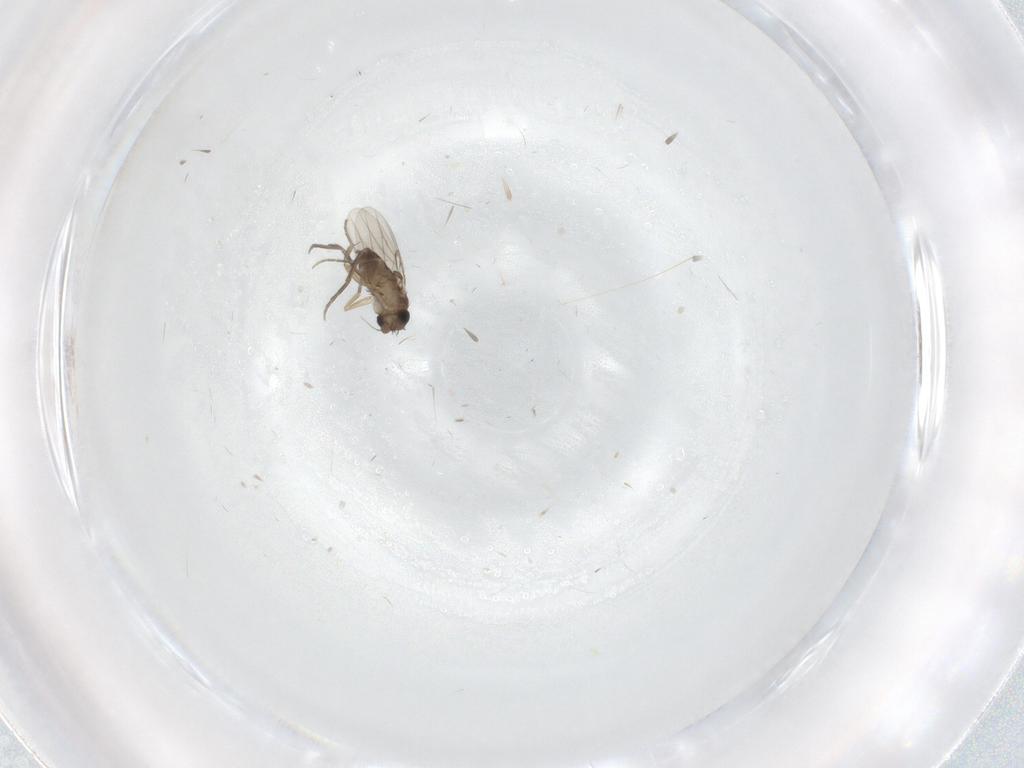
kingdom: Animalia
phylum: Arthropoda
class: Insecta
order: Diptera
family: Phoridae
